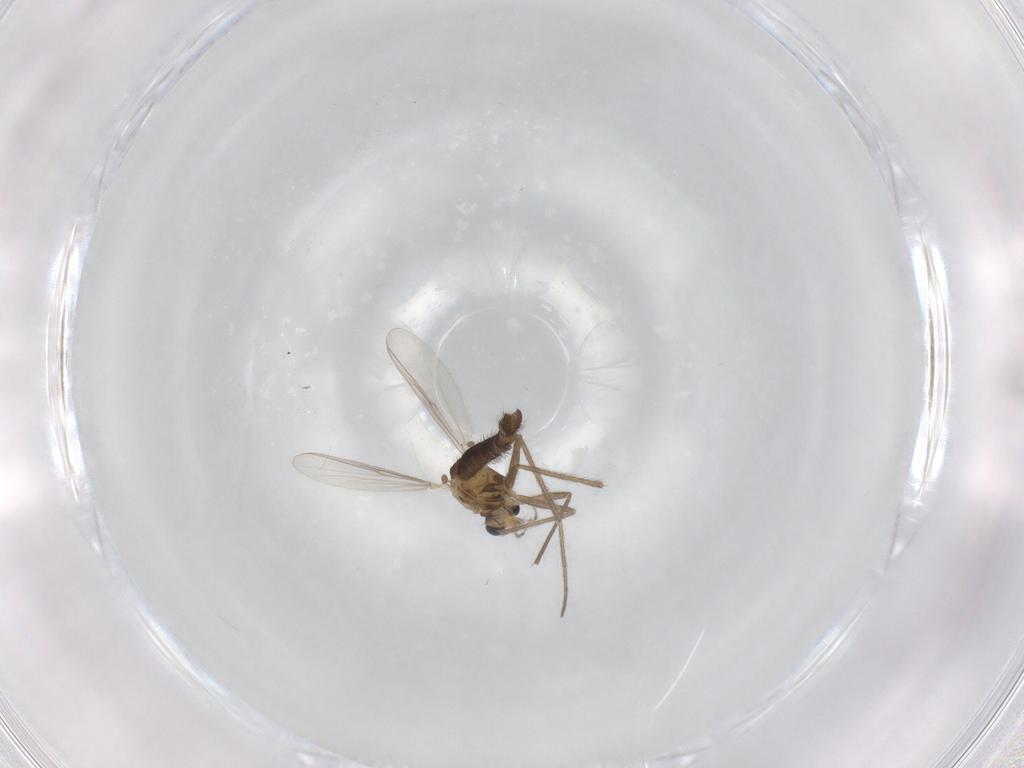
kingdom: Animalia
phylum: Arthropoda
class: Insecta
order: Diptera
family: Chironomidae
